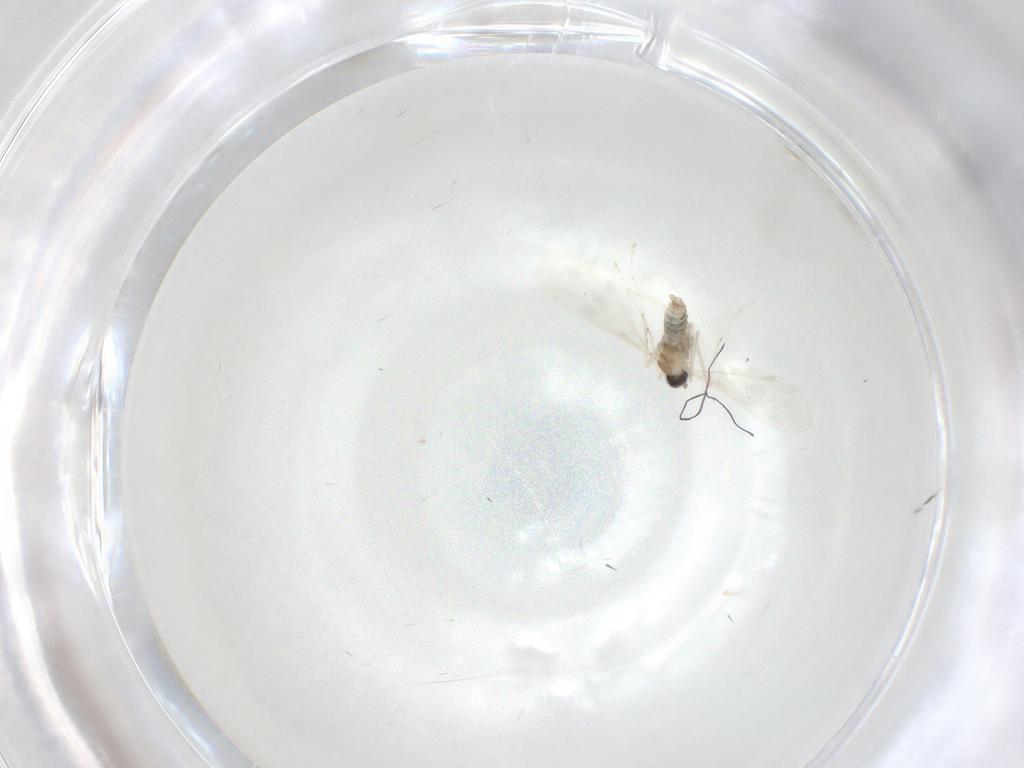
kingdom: Animalia
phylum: Arthropoda
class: Insecta
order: Diptera
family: Cecidomyiidae
